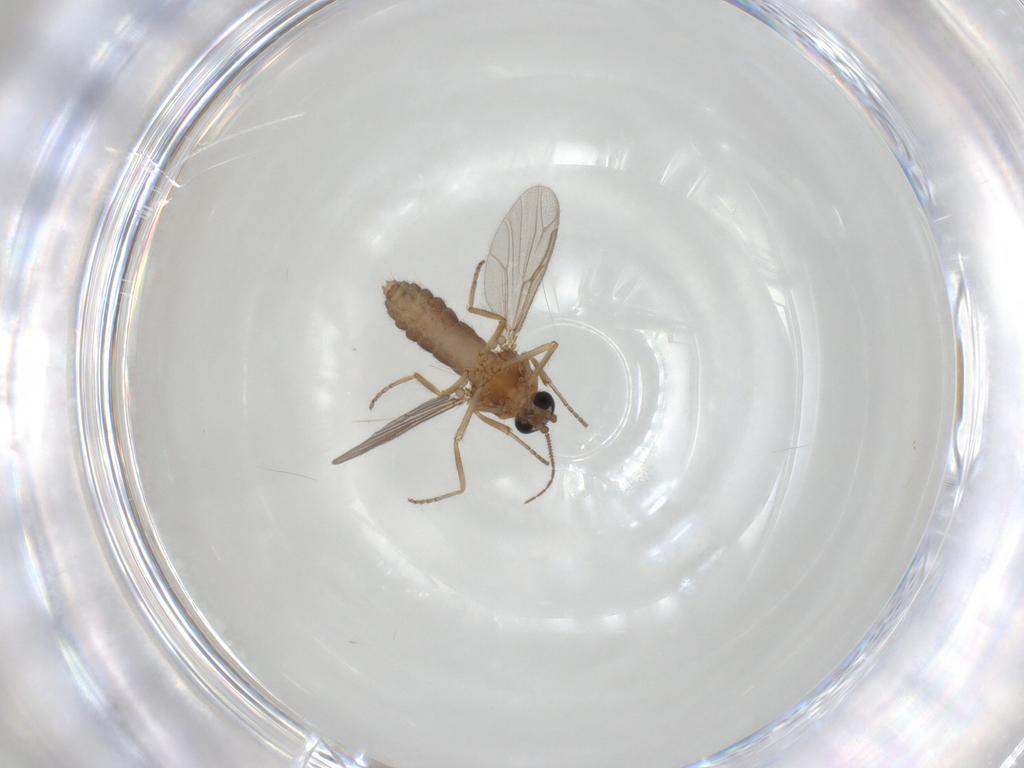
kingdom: Animalia
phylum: Arthropoda
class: Insecta
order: Diptera
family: Ceratopogonidae
